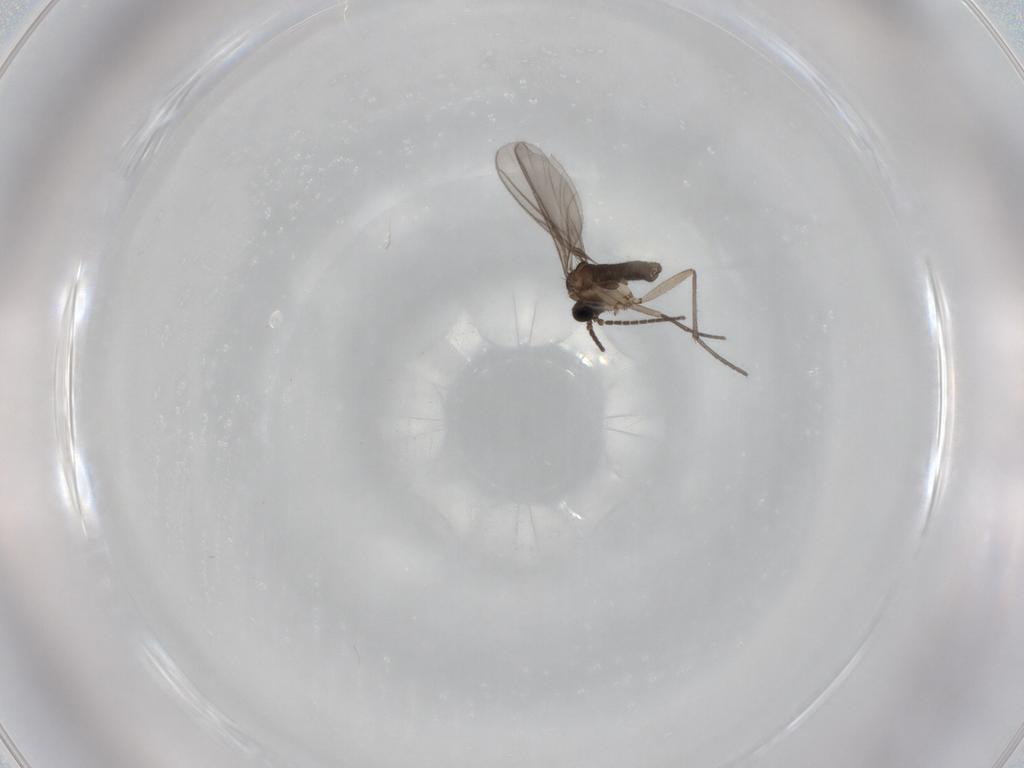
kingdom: Animalia
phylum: Arthropoda
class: Insecta
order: Diptera
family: Sciaridae
